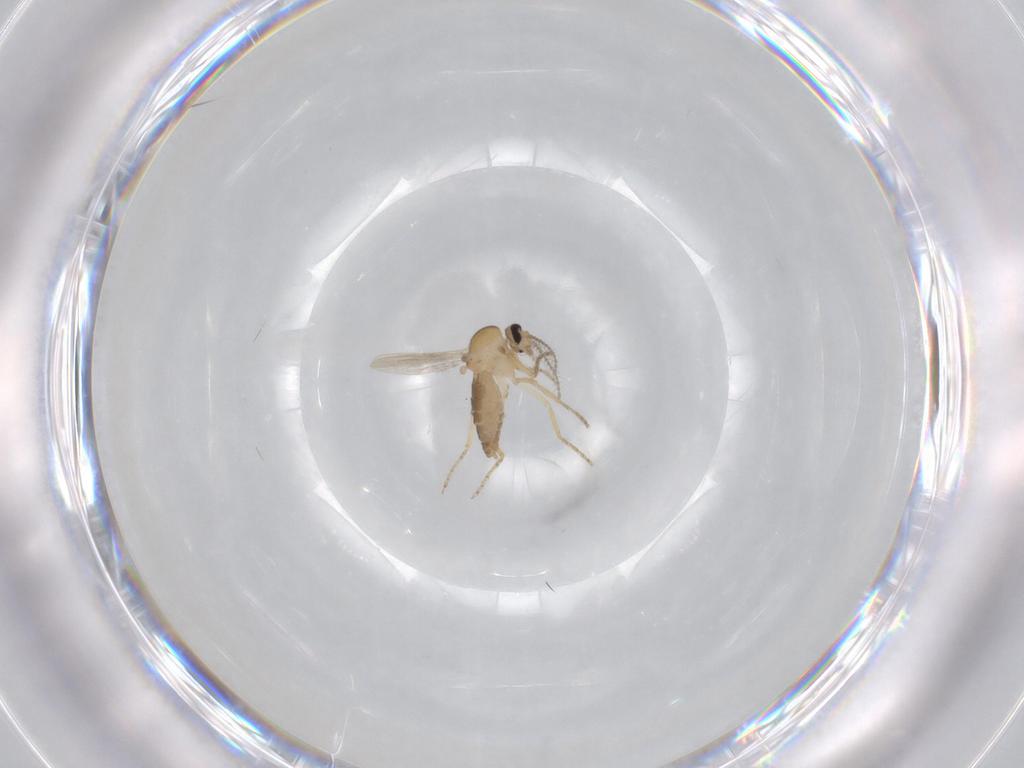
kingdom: Animalia
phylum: Arthropoda
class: Insecta
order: Diptera
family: Ceratopogonidae
